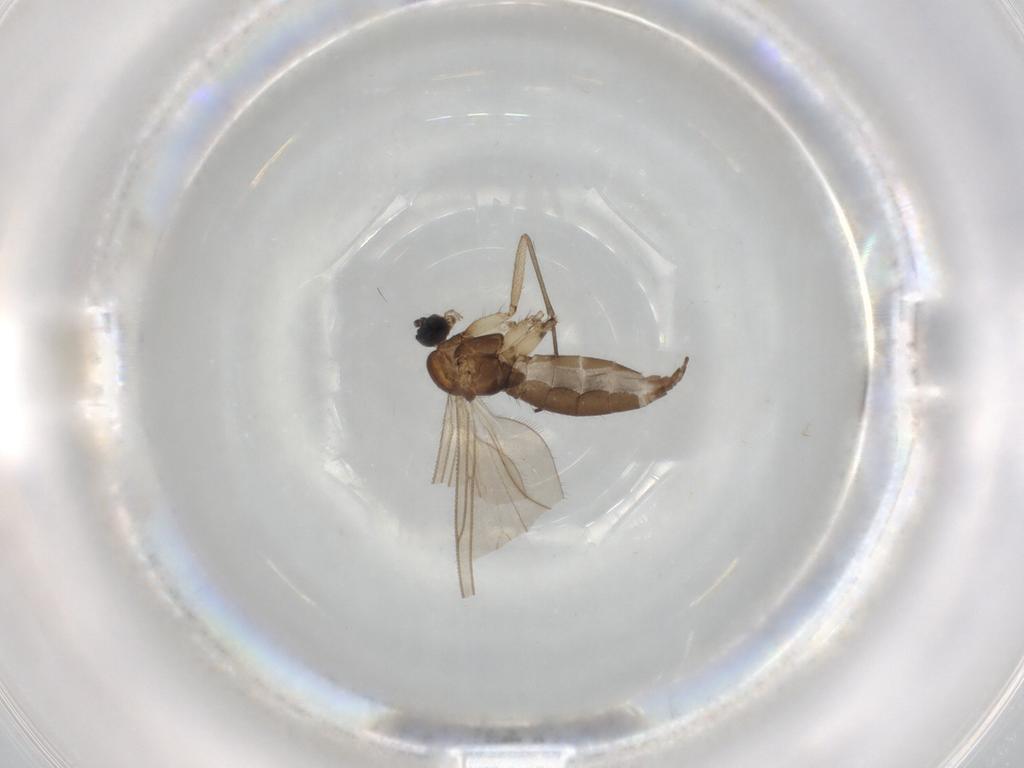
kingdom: Animalia
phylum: Arthropoda
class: Insecta
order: Diptera
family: Sciaridae
